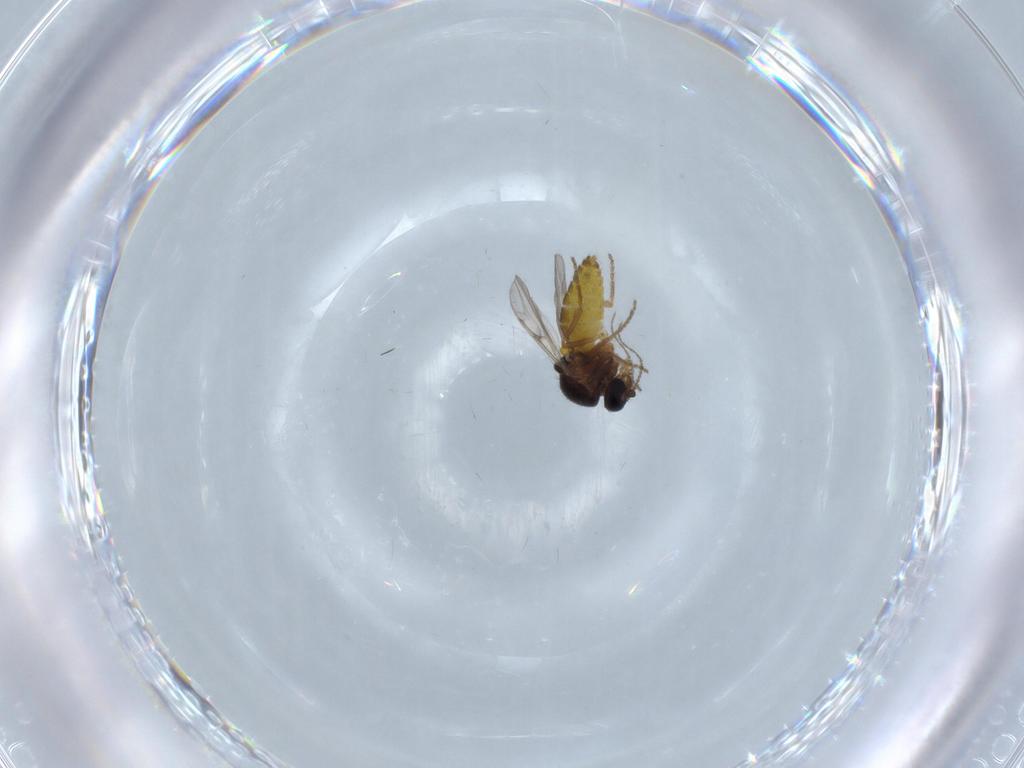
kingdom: Animalia
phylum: Arthropoda
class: Insecta
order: Diptera
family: Ceratopogonidae
